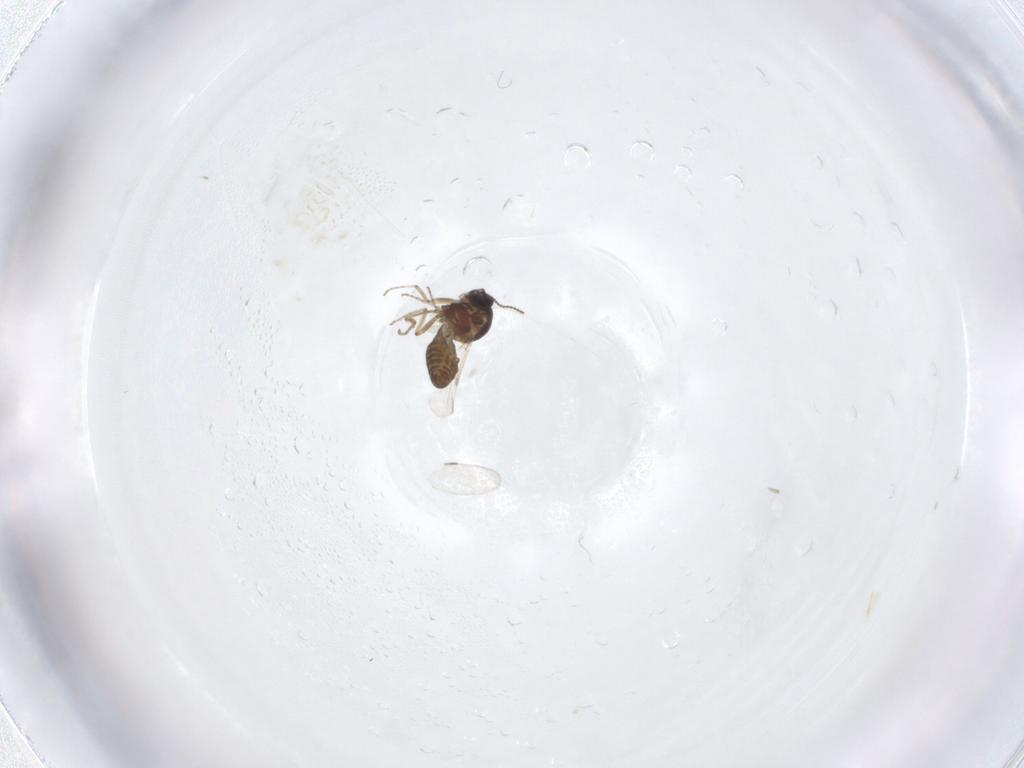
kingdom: Animalia
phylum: Arthropoda
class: Insecta
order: Diptera
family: Ceratopogonidae
